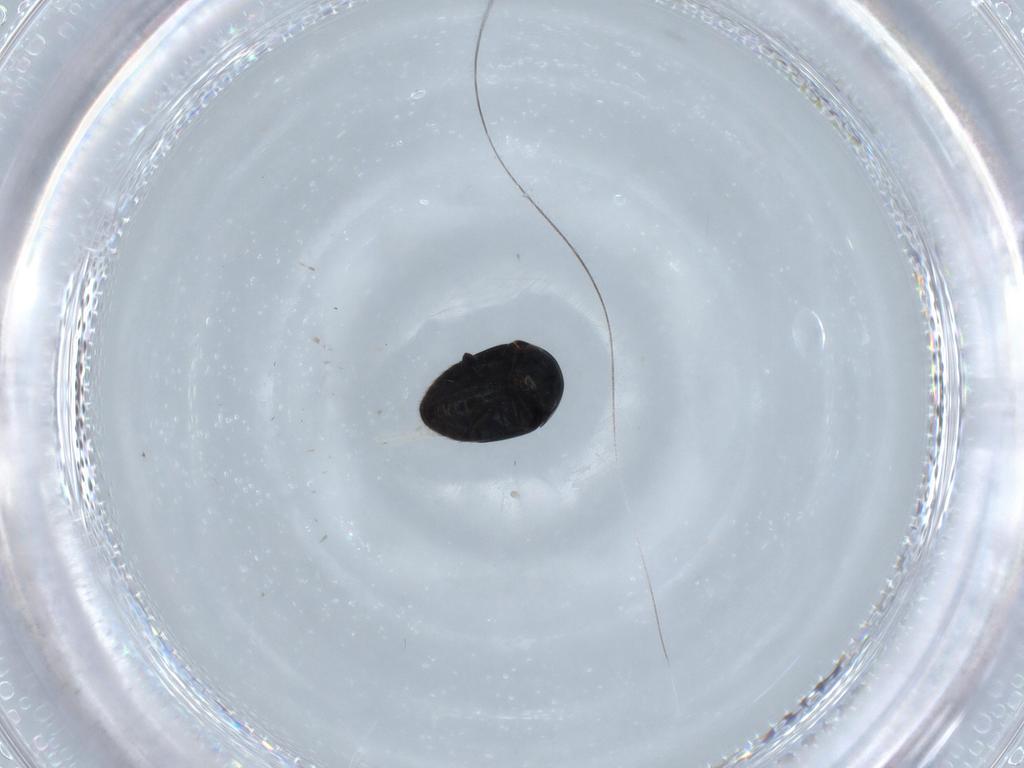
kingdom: Animalia
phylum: Arthropoda
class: Insecta
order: Coleoptera
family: Cybocephalidae
